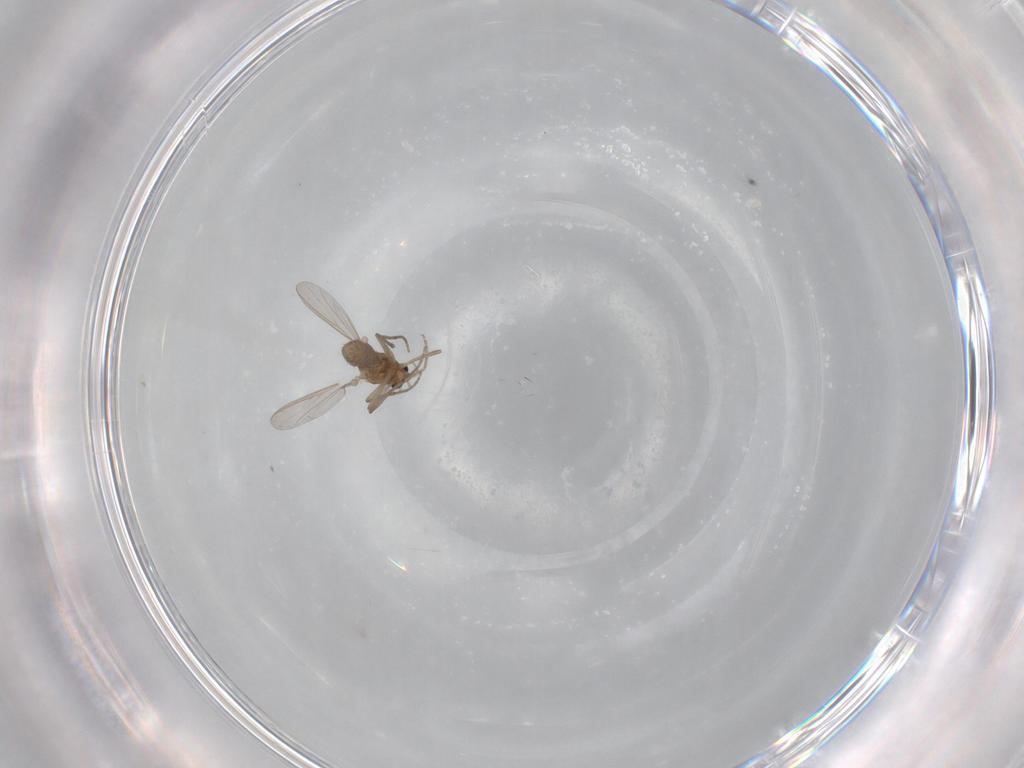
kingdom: Animalia
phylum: Arthropoda
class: Insecta
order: Diptera
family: Chironomidae
